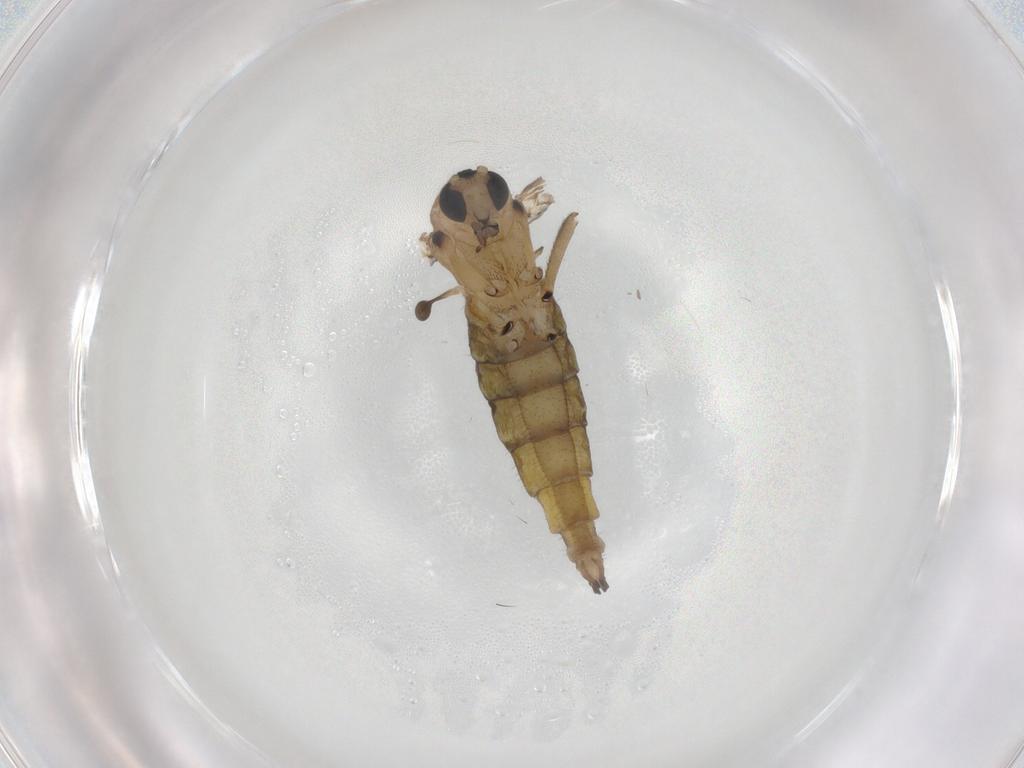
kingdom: Animalia
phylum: Arthropoda
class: Insecta
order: Diptera
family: Sciaridae
